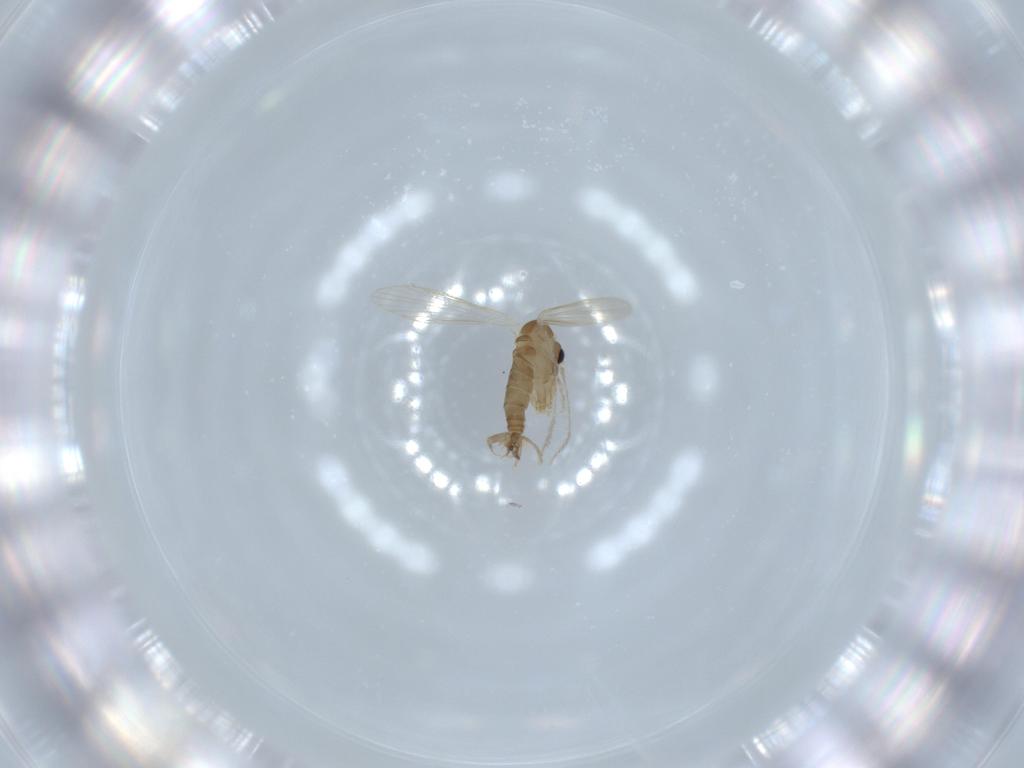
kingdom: Animalia
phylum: Arthropoda
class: Insecta
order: Diptera
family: Psychodidae
